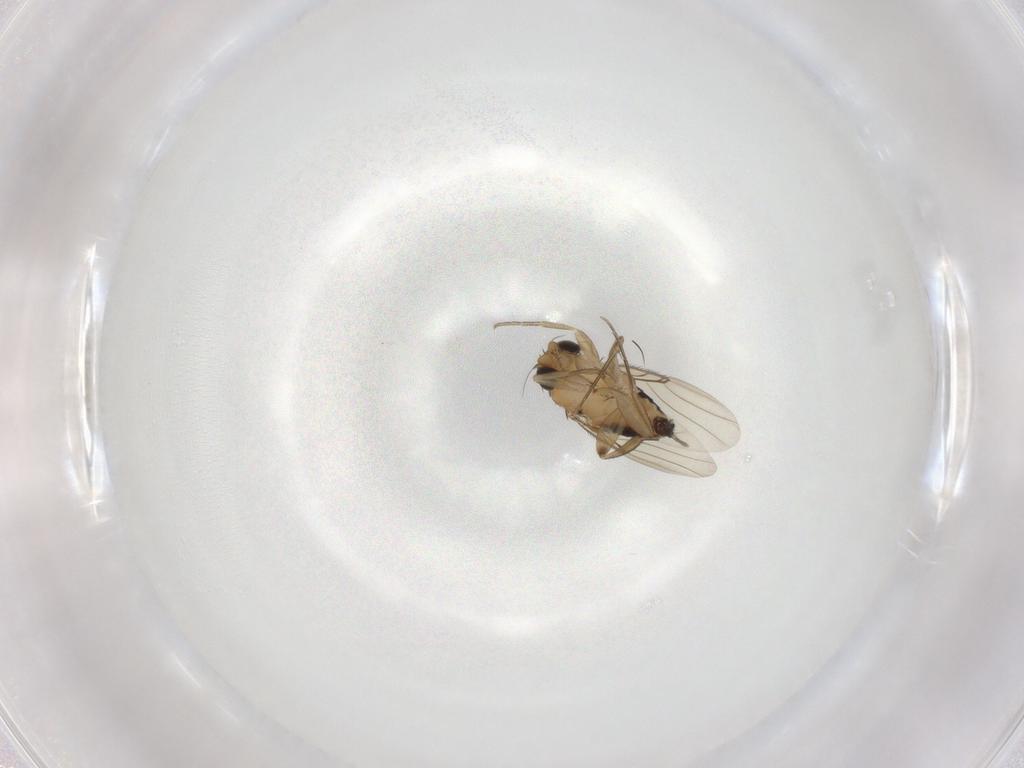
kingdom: Animalia
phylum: Arthropoda
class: Insecta
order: Diptera
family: Phoridae
